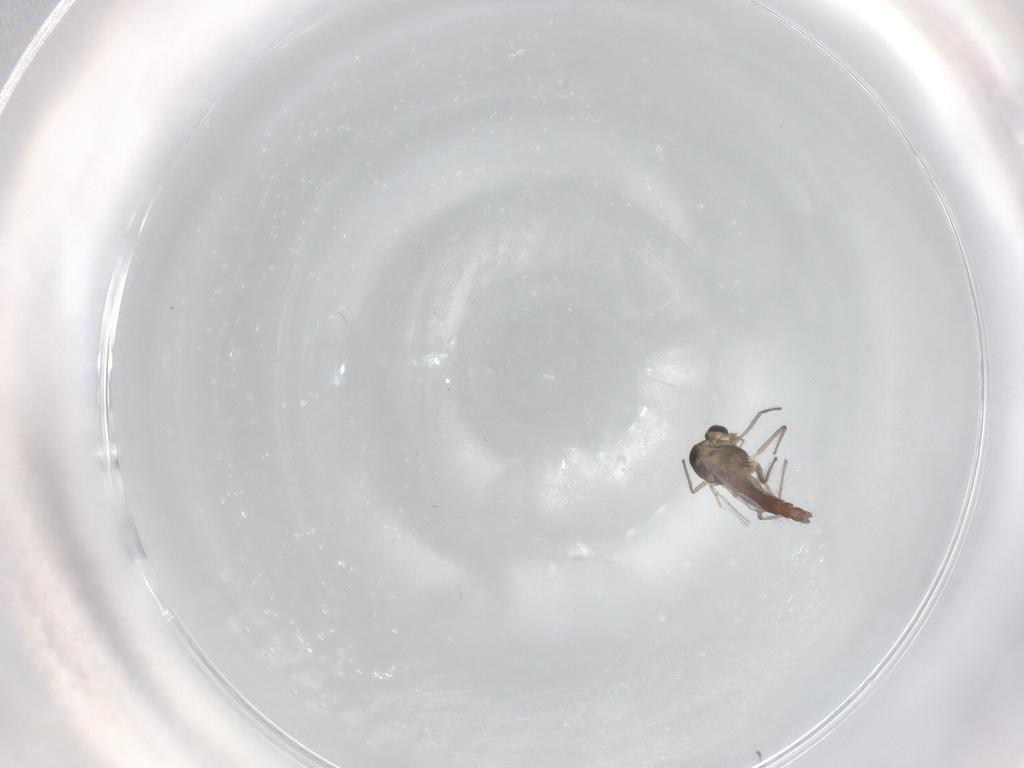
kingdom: Animalia
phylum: Arthropoda
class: Insecta
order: Diptera
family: Chironomidae
